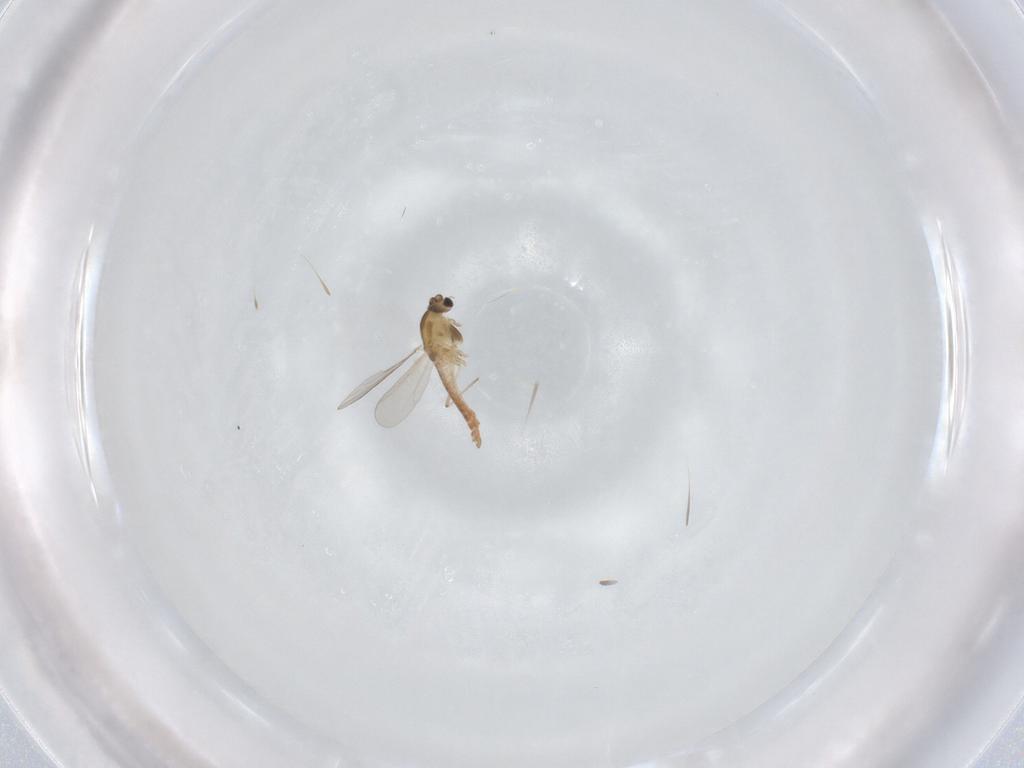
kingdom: Animalia
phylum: Arthropoda
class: Insecta
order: Diptera
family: Chironomidae
